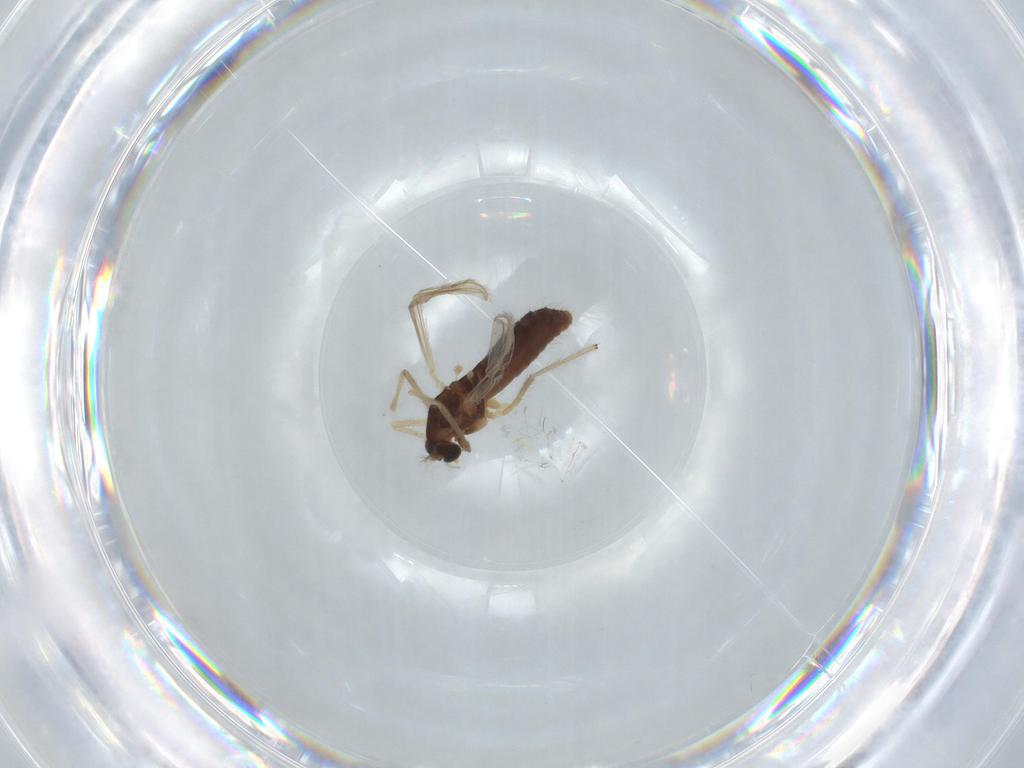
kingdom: Animalia
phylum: Arthropoda
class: Insecta
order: Diptera
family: Chironomidae
